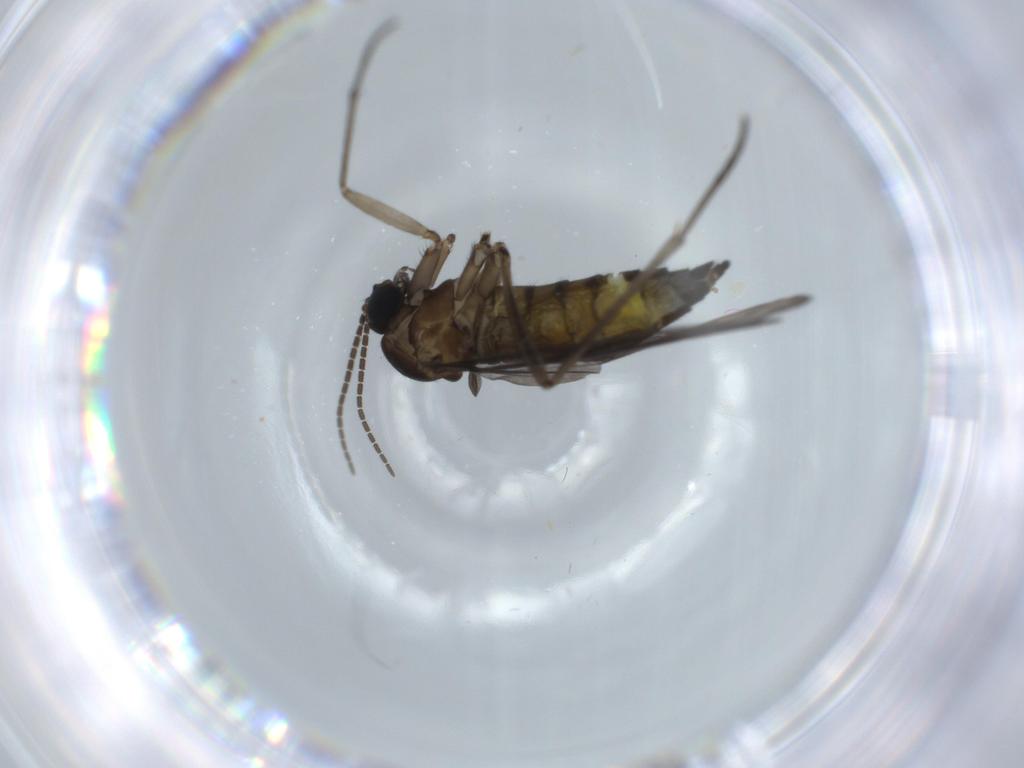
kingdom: Animalia
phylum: Arthropoda
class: Insecta
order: Diptera
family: Sciaridae
